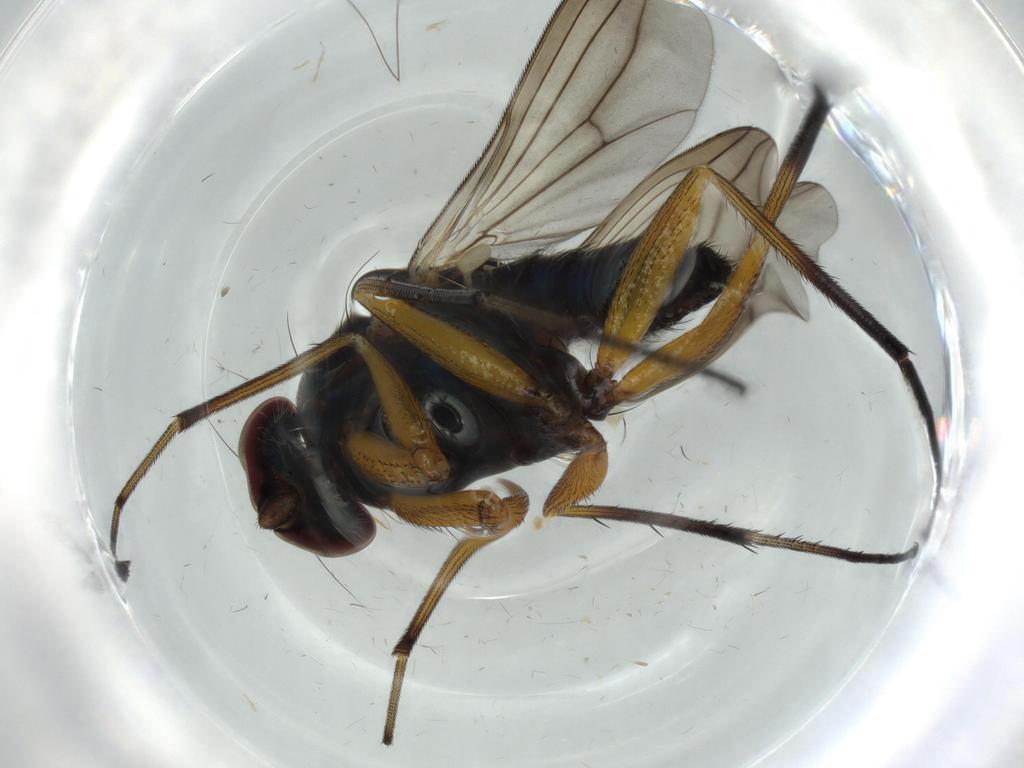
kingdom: Animalia
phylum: Arthropoda
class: Insecta
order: Diptera
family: Dolichopodidae
